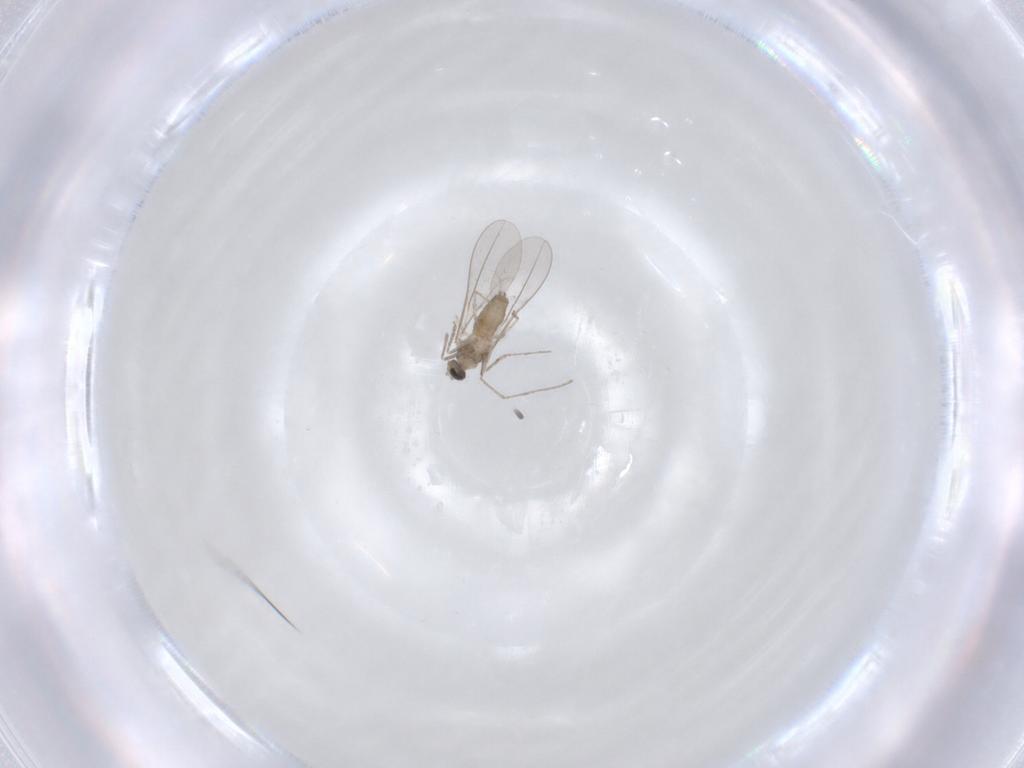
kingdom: Animalia
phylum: Arthropoda
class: Insecta
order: Diptera
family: Cecidomyiidae
